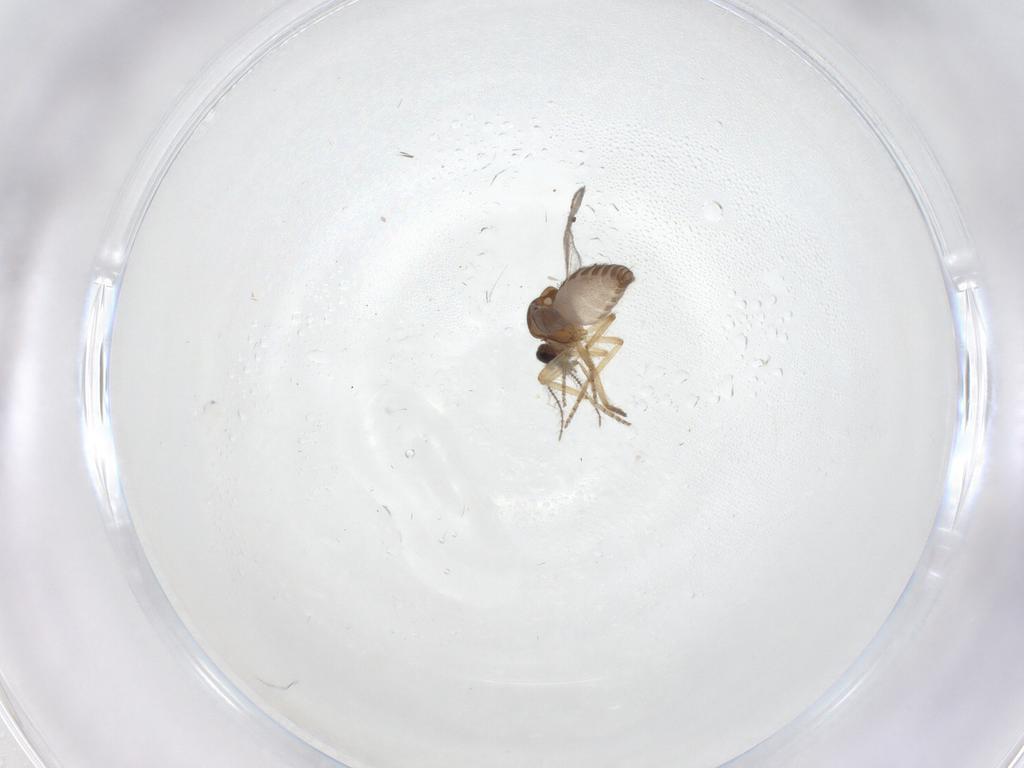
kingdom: Animalia
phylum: Arthropoda
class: Insecta
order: Diptera
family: Ceratopogonidae
